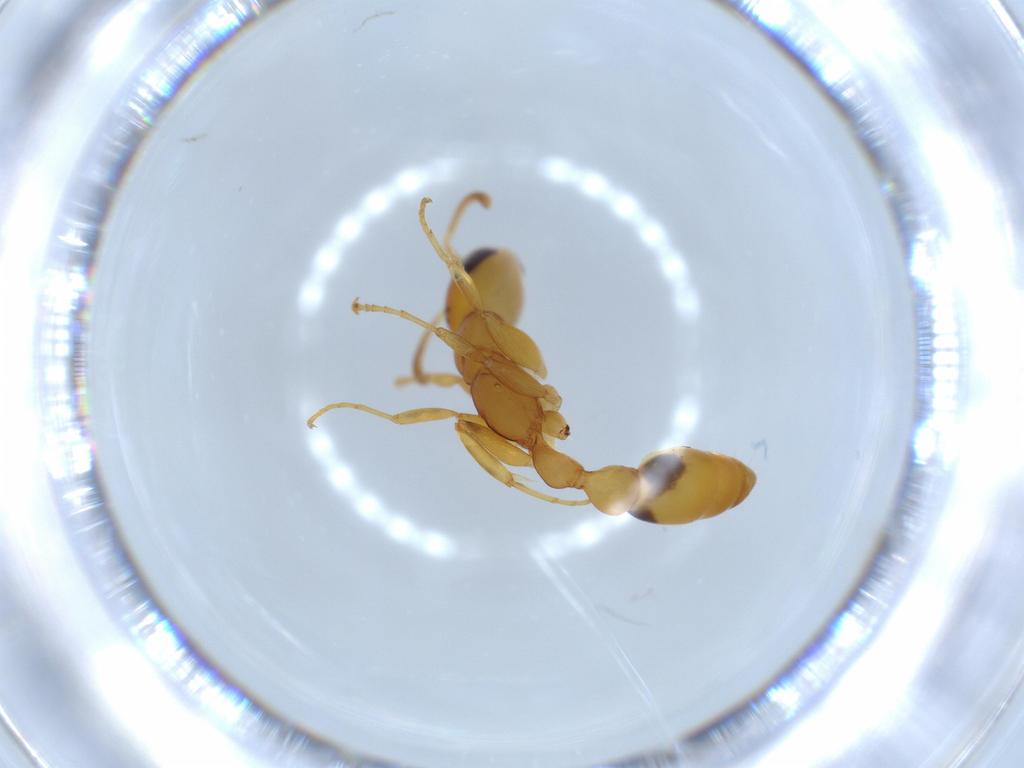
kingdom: Animalia
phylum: Arthropoda
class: Insecta
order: Hymenoptera
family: Formicidae
